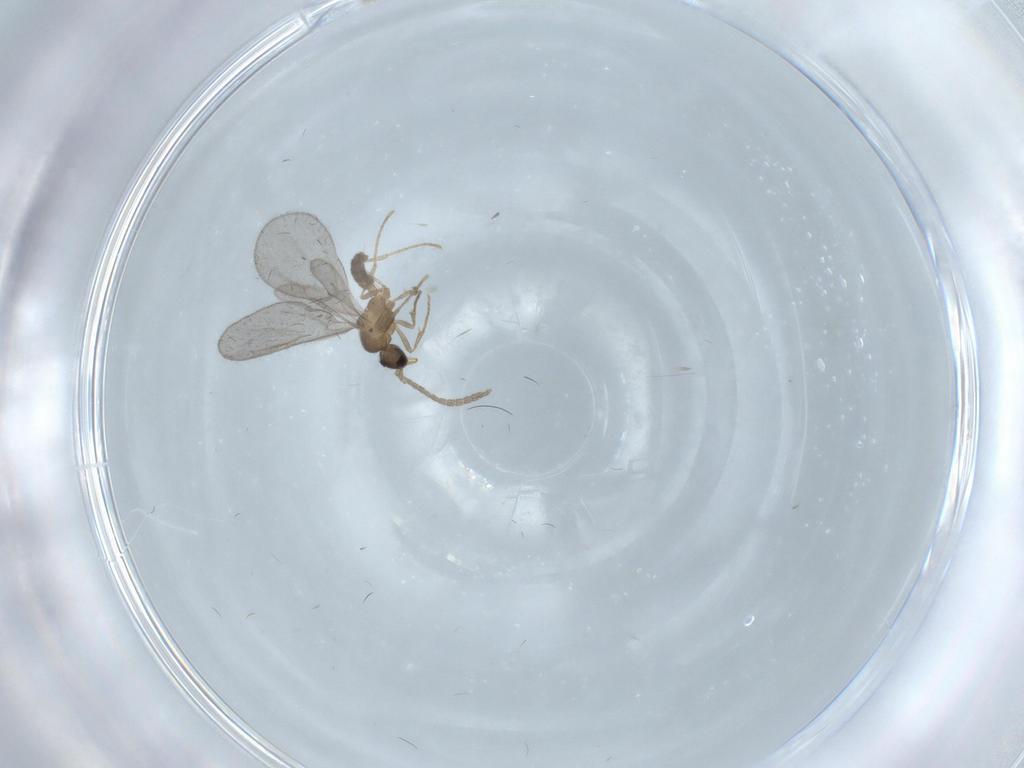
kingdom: Animalia
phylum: Arthropoda
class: Insecta
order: Hymenoptera
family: Formicidae
